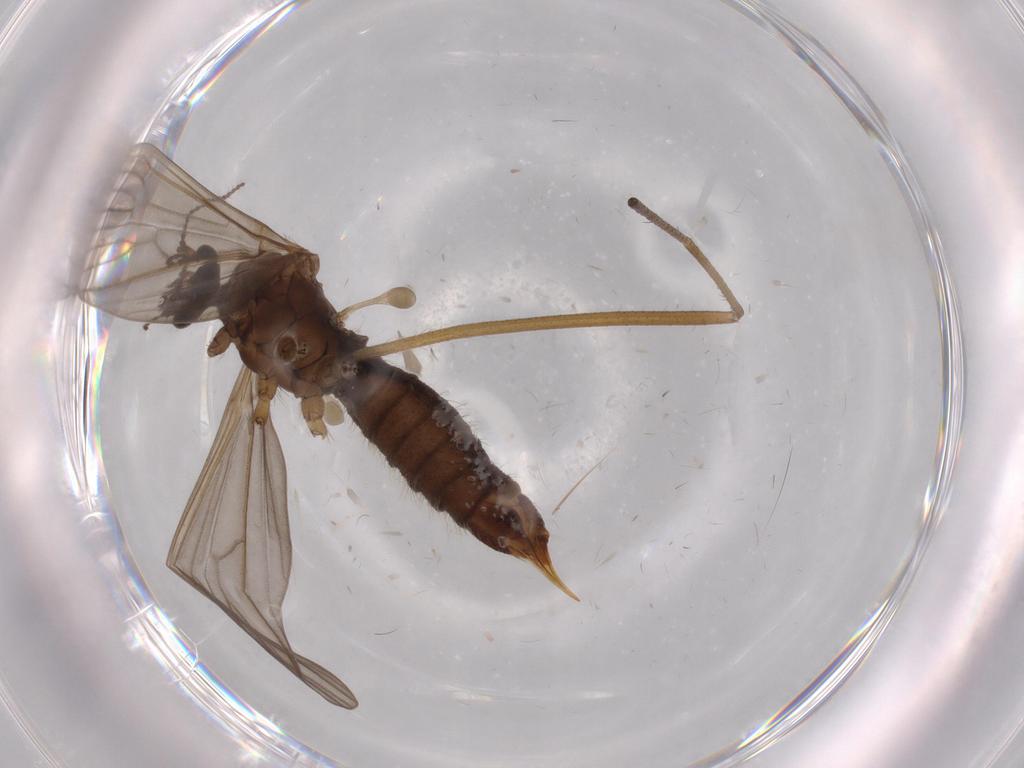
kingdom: Animalia
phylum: Arthropoda
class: Insecta
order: Diptera
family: Limoniidae
